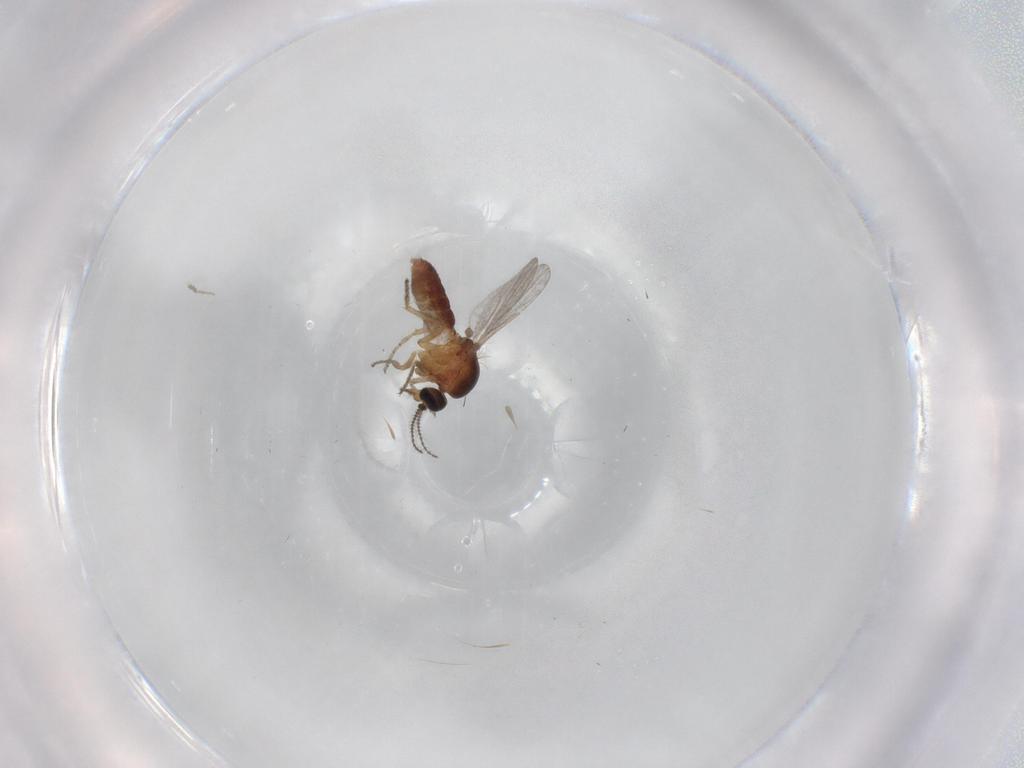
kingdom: Animalia
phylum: Arthropoda
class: Insecta
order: Diptera
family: Ceratopogonidae
